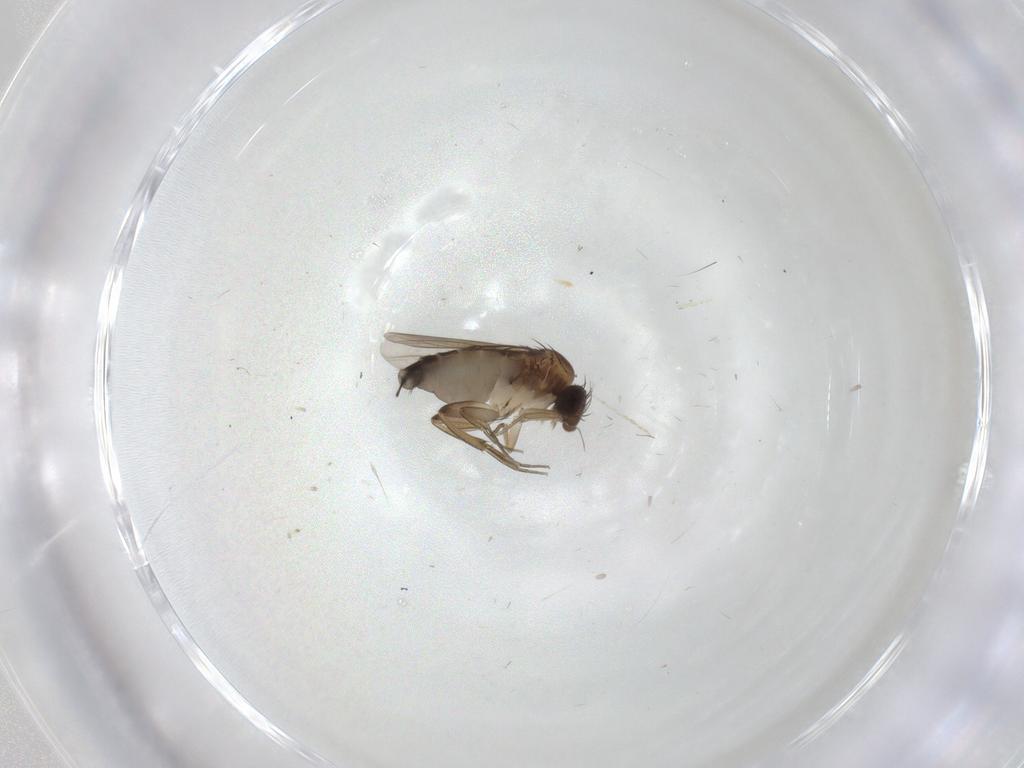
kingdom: Animalia
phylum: Arthropoda
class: Insecta
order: Diptera
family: Phoridae
